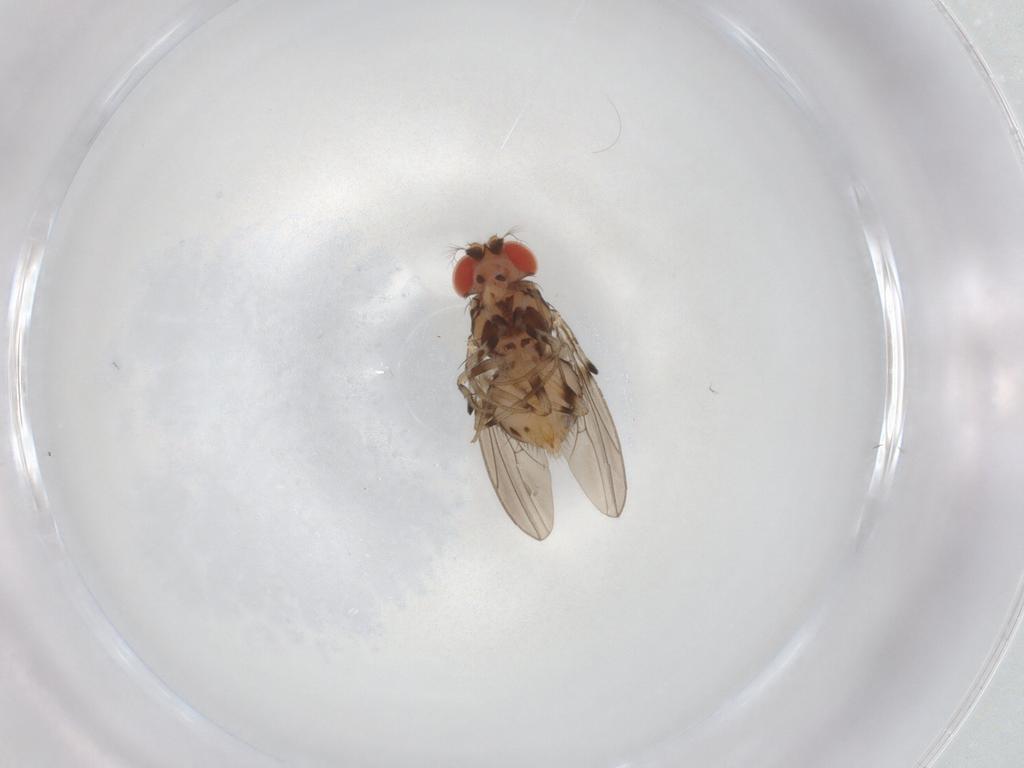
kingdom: Animalia
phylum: Arthropoda
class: Insecta
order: Diptera
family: Drosophilidae
